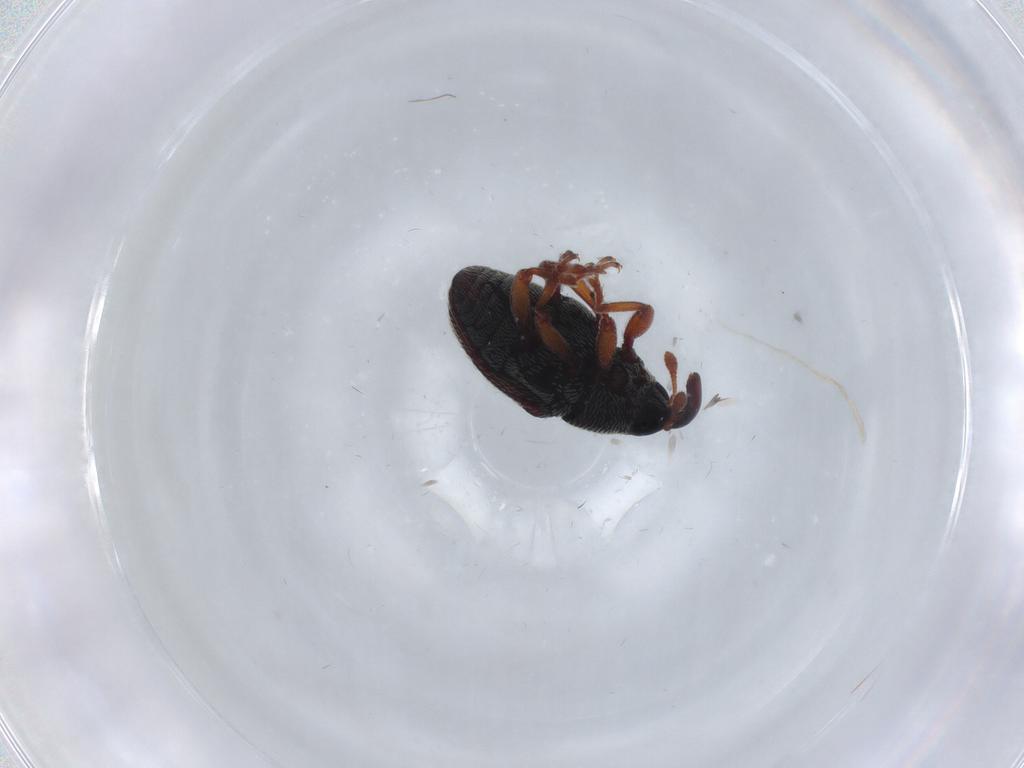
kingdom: Animalia
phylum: Arthropoda
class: Insecta
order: Coleoptera
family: Curculionidae
